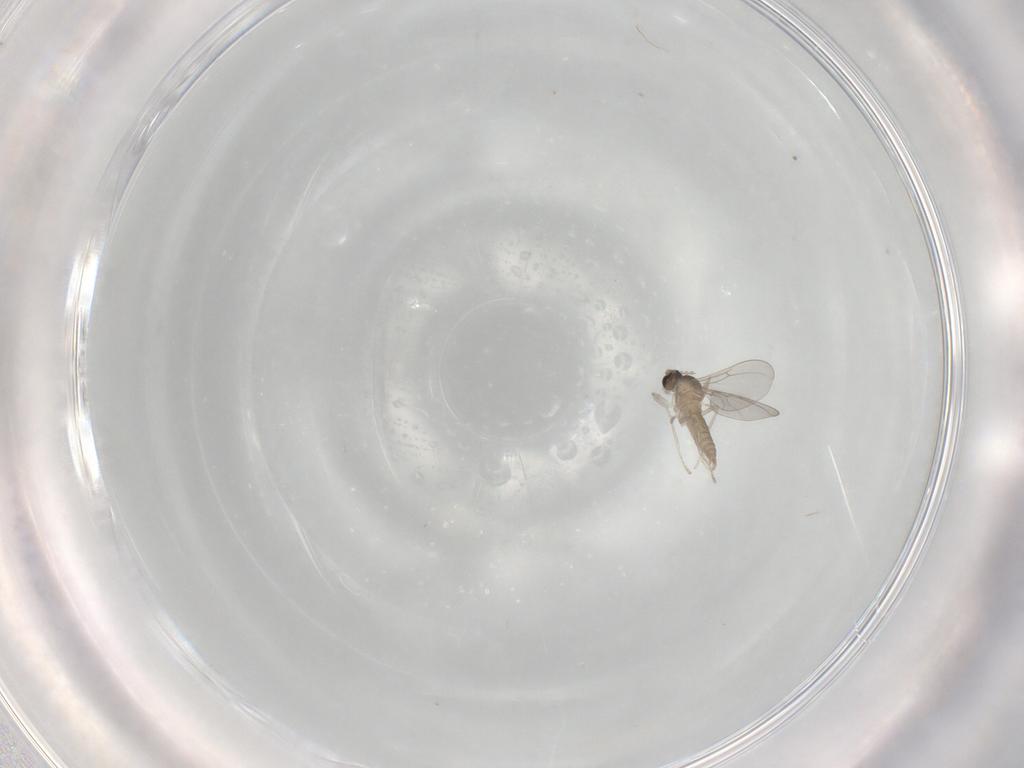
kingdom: Animalia
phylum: Arthropoda
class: Insecta
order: Diptera
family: Cecidomyiidae
